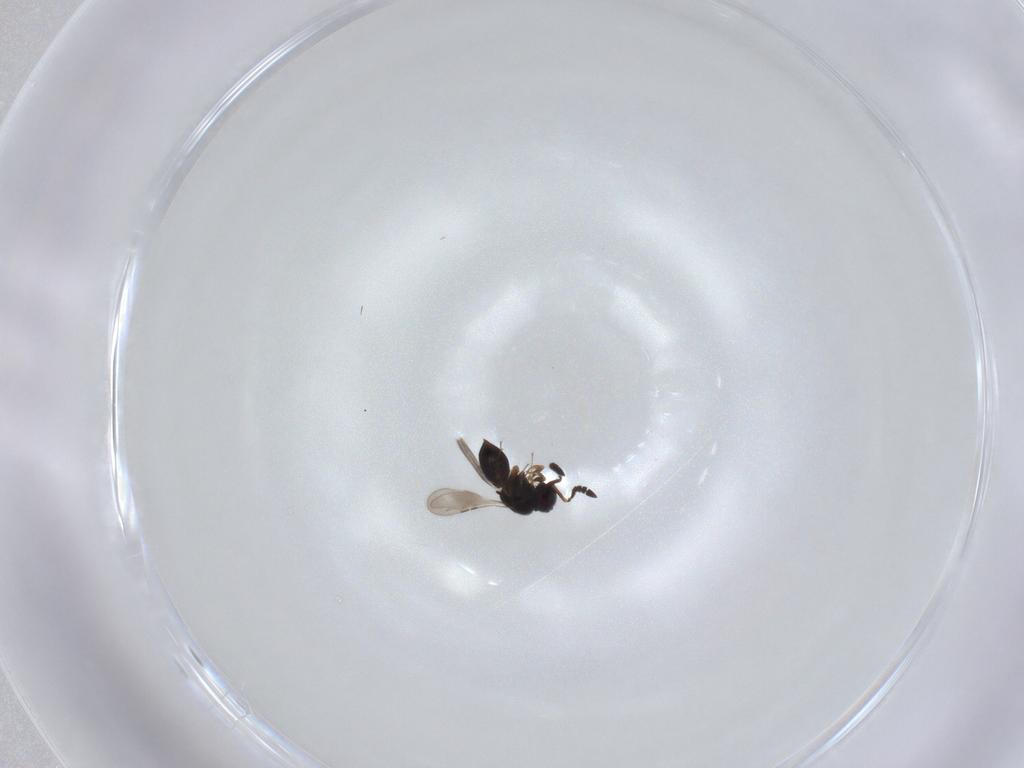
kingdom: Animalia
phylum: Arthropoda
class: Insecta
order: Hymenoptera
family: Ceraphronidae
